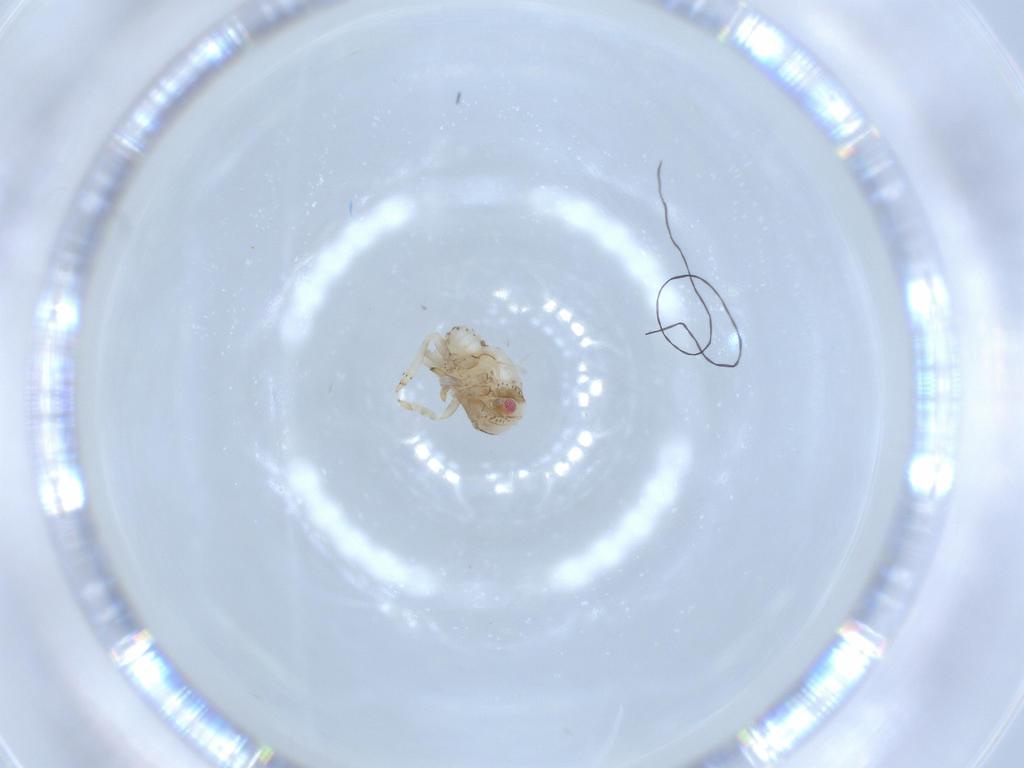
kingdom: Animalia
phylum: Arthropoda
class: Insecta
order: Hemiptera
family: Acanaloniidae
